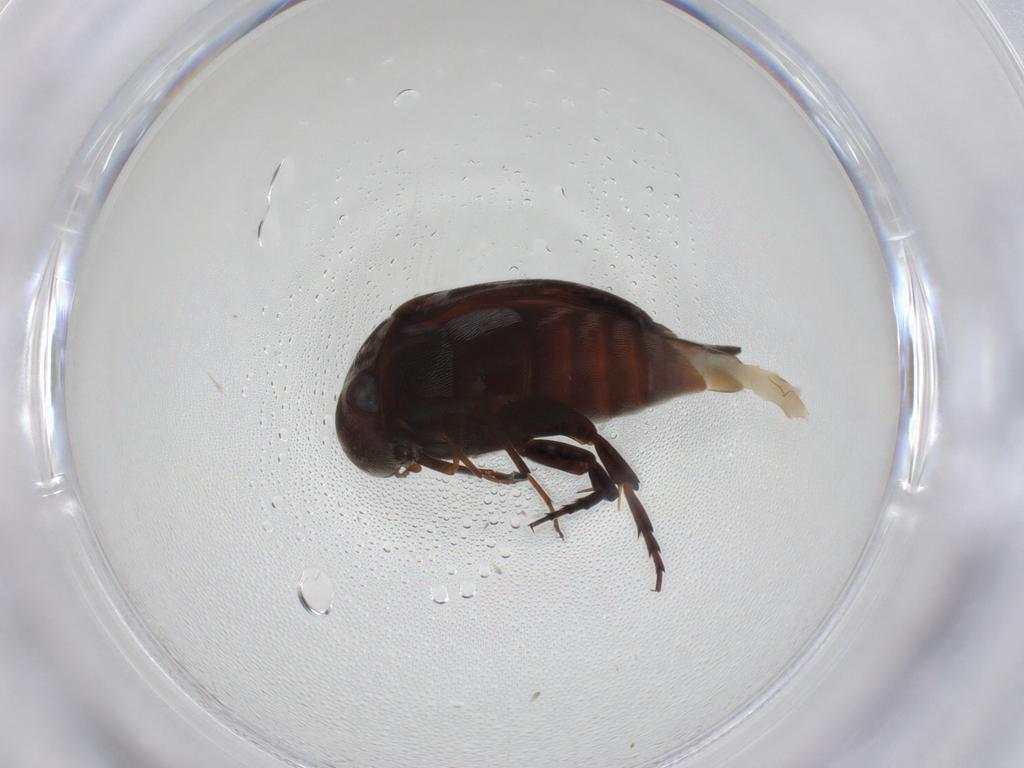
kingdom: Animalia
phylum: Arthropoda
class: Insecta
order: Coleoptera
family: Mordellidae
